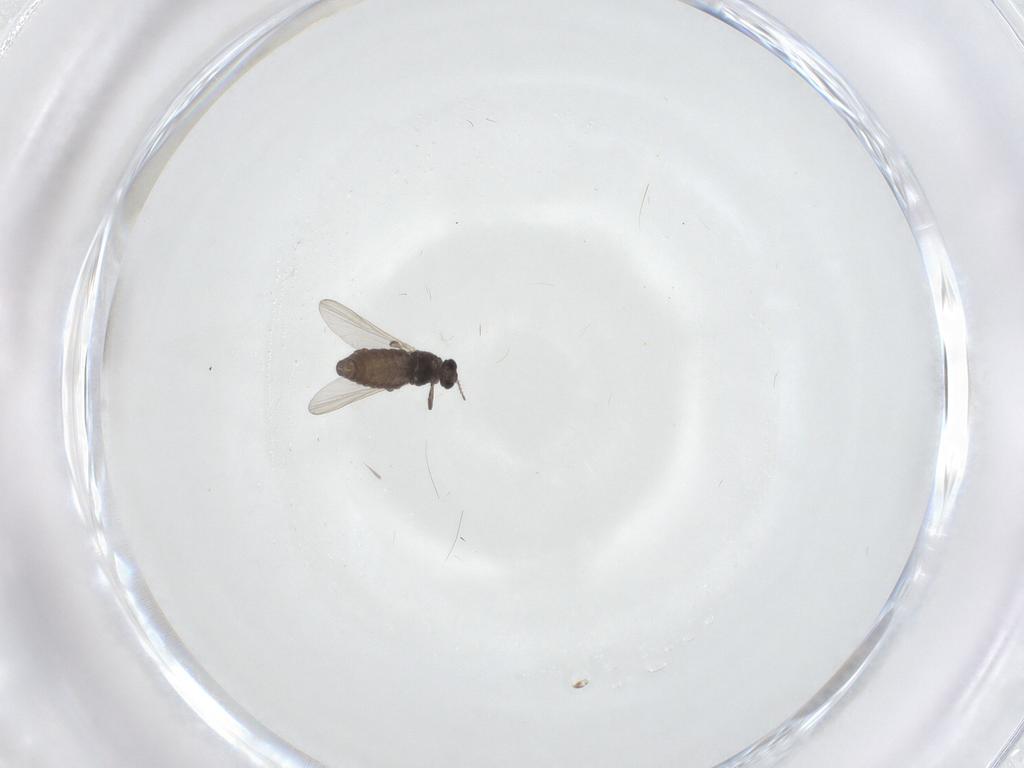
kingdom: Animalia
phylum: Arthropoda
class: Insecta
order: Diptera
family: Chironomidae
